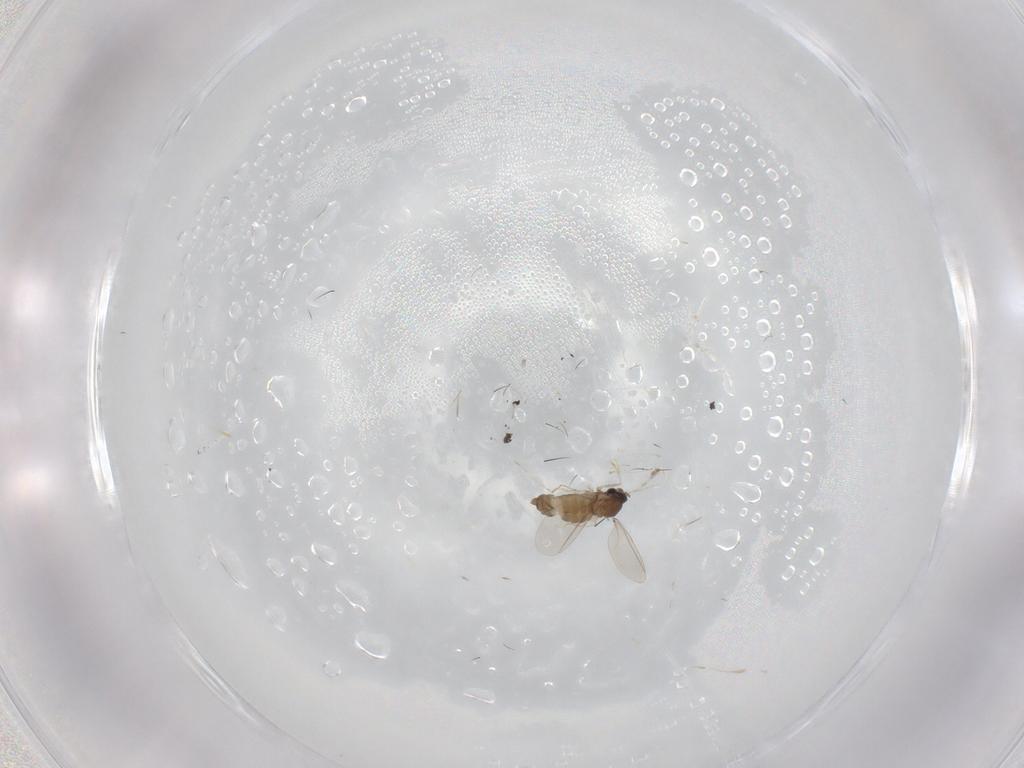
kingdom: Animalia
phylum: Arthropoda
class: Insecta
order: Diptera
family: Cecidomyiidae
